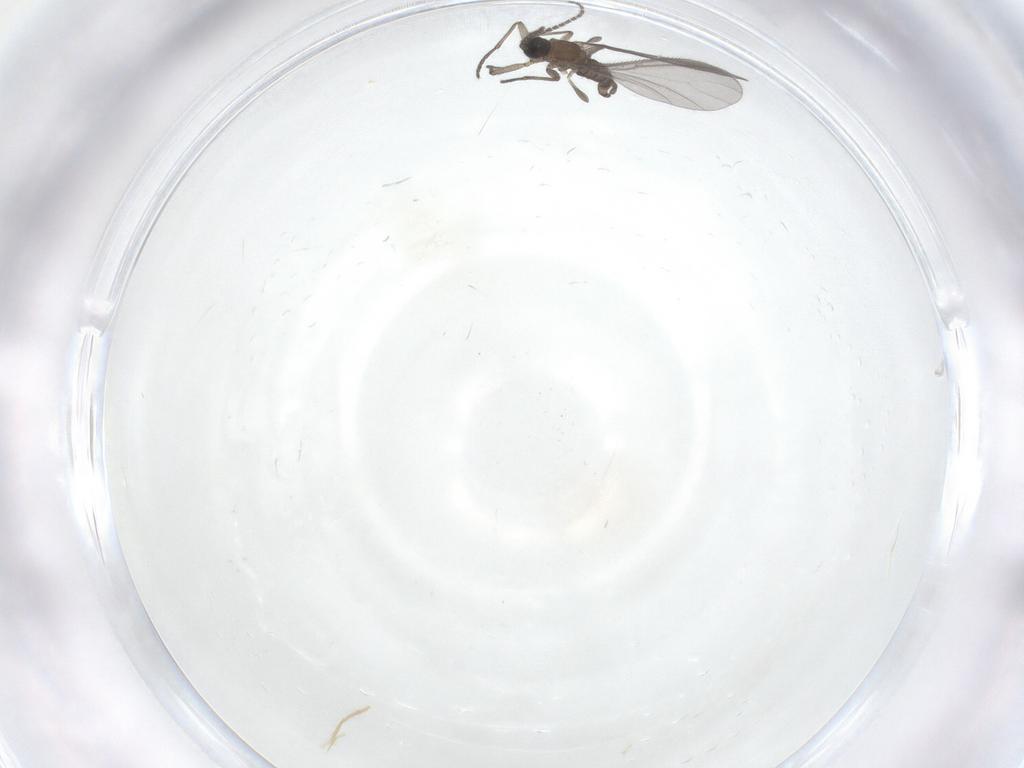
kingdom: Animalia
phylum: Arthropoda
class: Insecta
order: Diptera
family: Sciaridae
